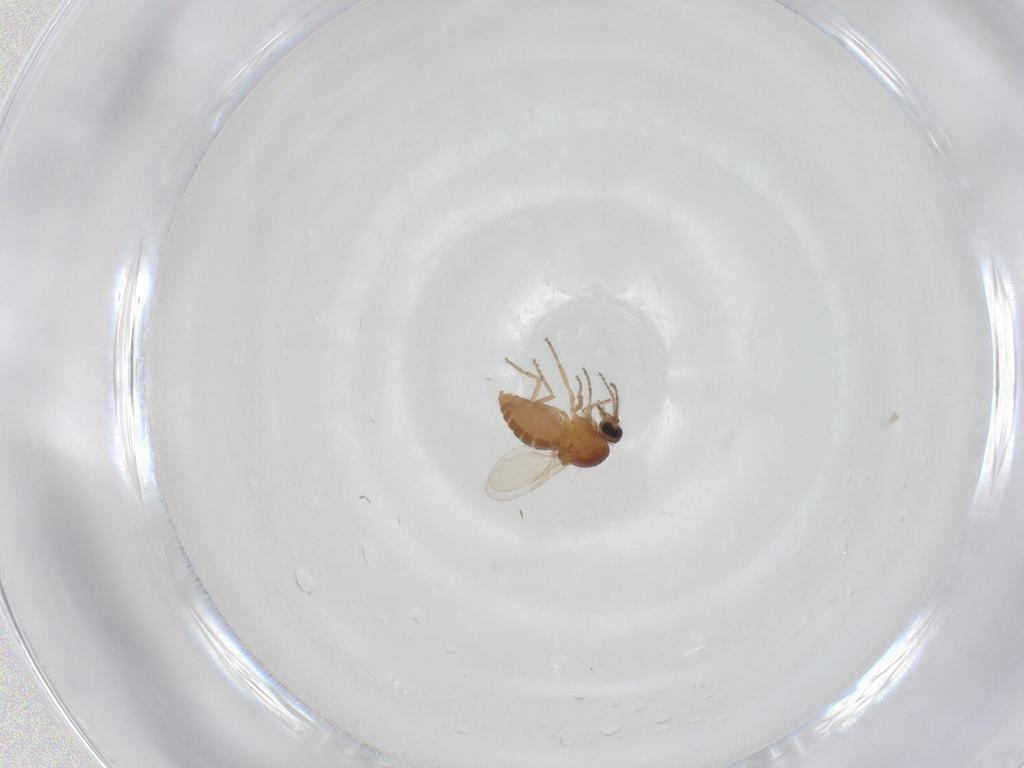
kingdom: Animalia
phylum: Arthropoda
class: Insecta
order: Diptera
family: Ceratopogonidae
